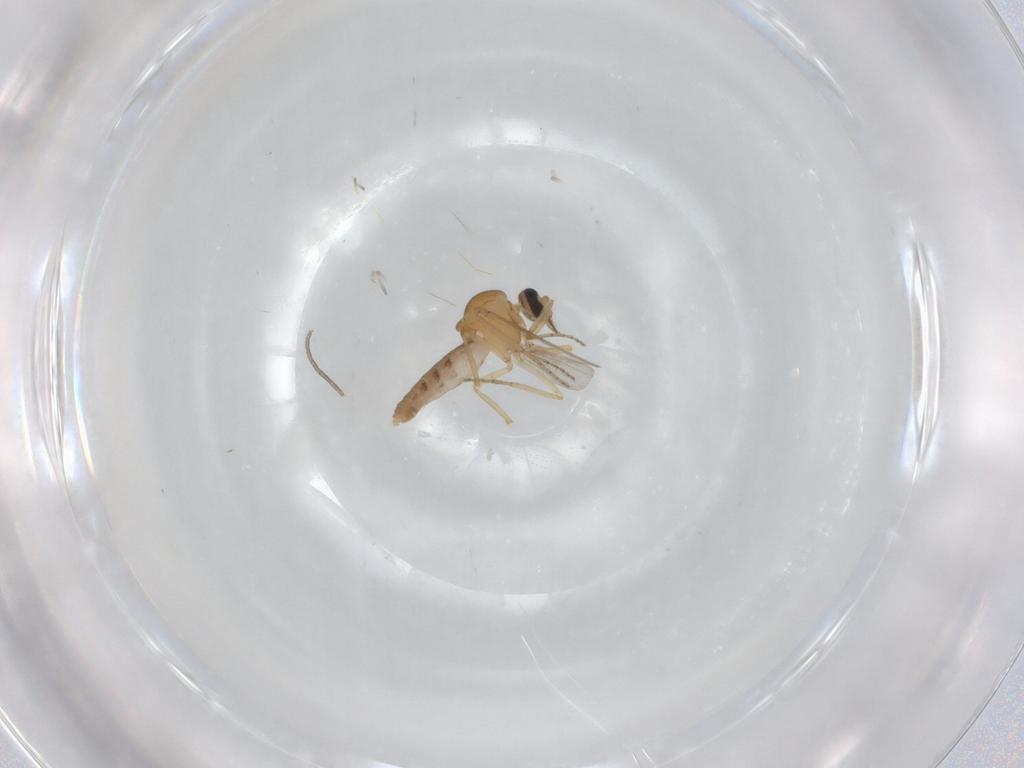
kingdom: Animalia
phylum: Arthropoda
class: Insecta
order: Diptera
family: Ceratopogonidae
